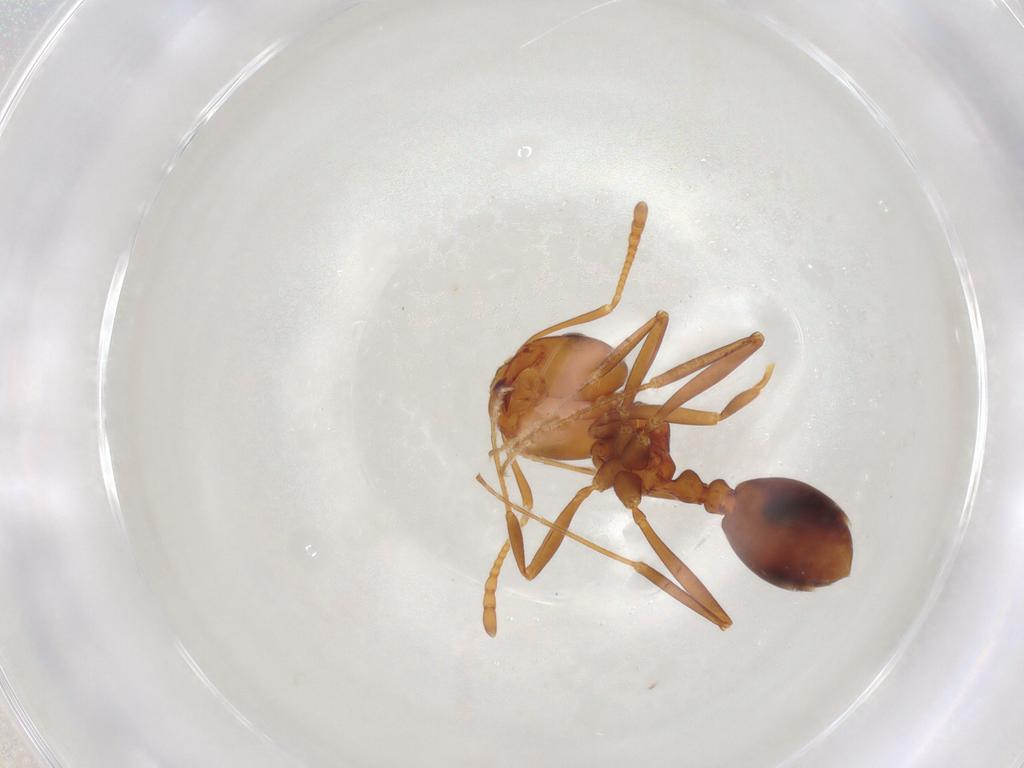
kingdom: Animalia
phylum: Arthropoda
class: Insecta
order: Hymenoptera
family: Formicidae
